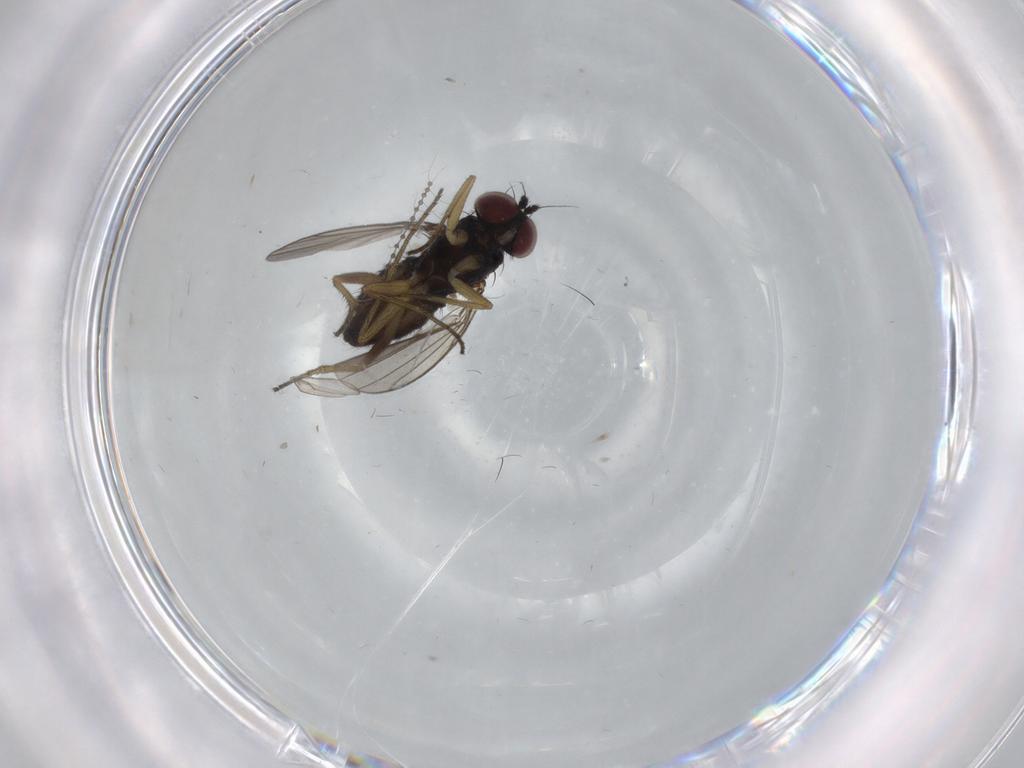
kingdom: Animalia
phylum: Arthropoda
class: Insecta
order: Diptera
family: Dolichopodidae
